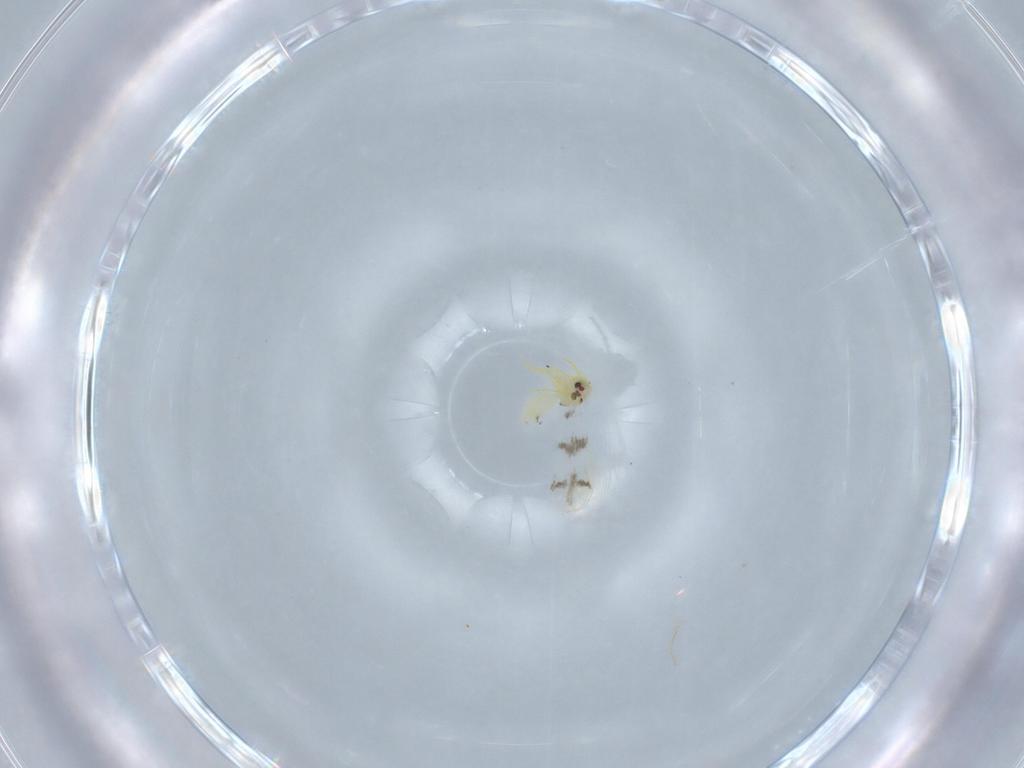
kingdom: Animalia
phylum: Arthropoda
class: Insecta
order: Hemiptera
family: Aleyrodidae
